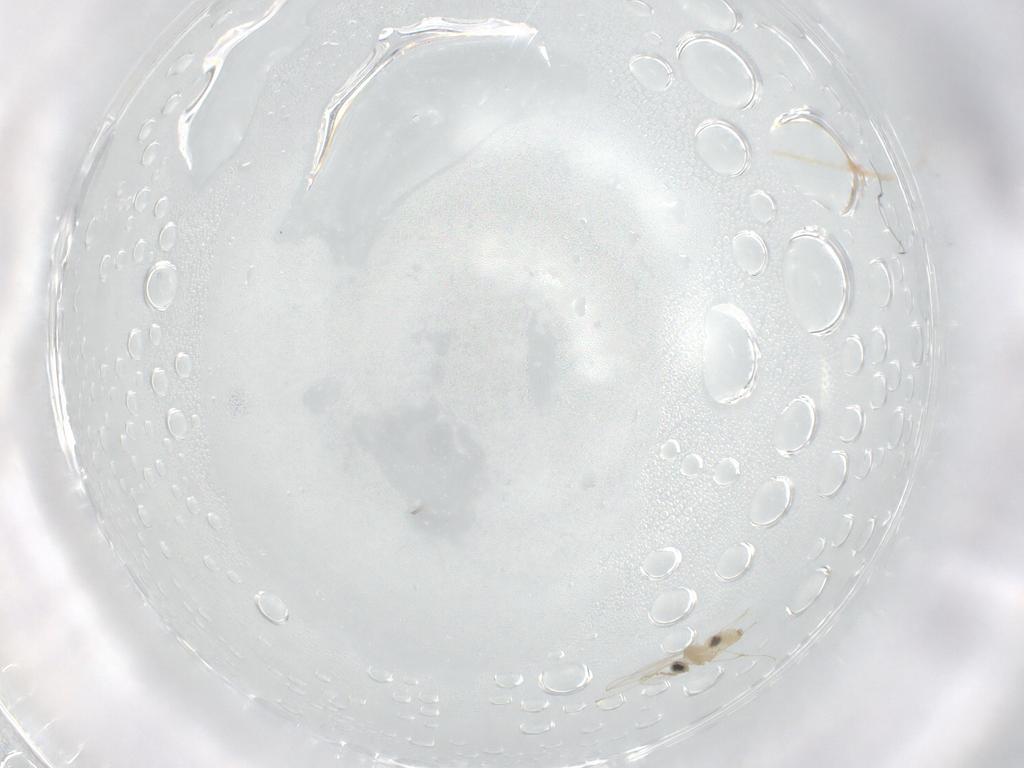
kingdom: Animalia
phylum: Arthropoda
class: Insecta
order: Diptera
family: Cecidomyiidae
